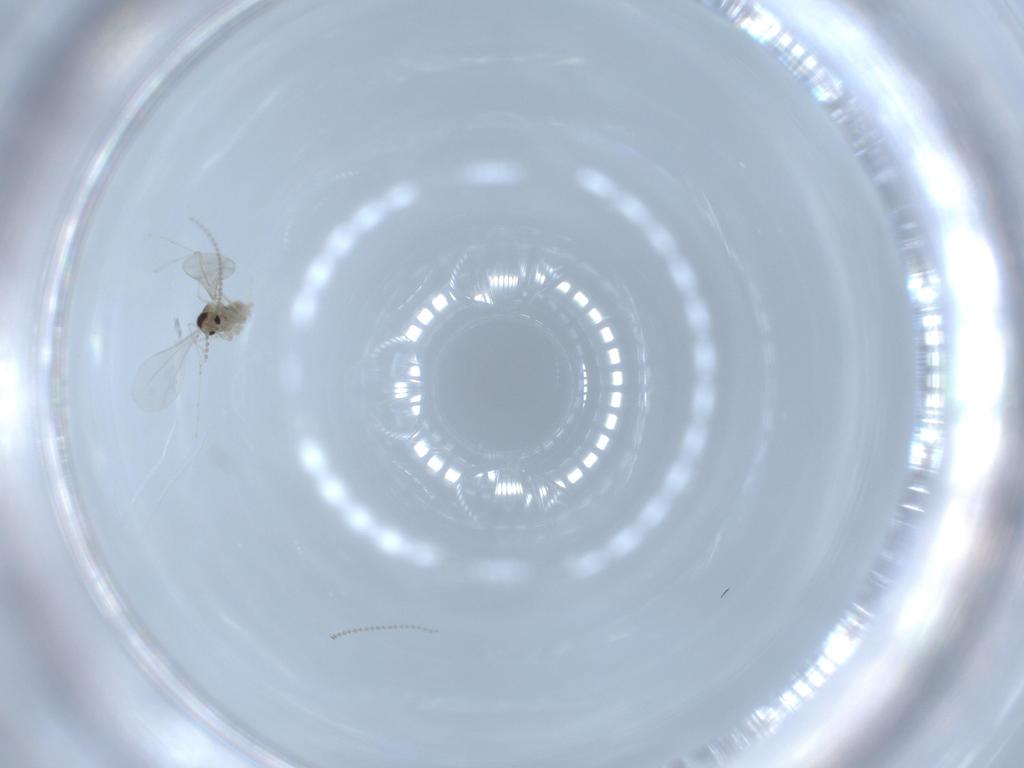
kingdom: Animalia
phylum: Arthropoda
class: Insecta
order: Diptera
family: Cecidomyiidae
